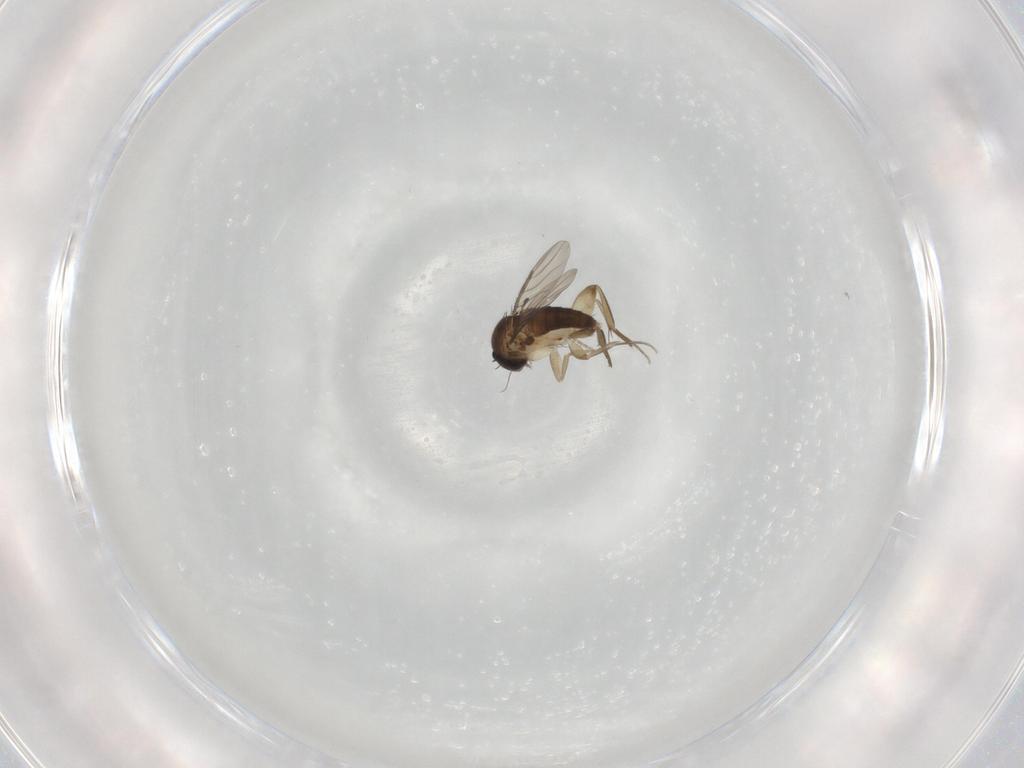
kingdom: Animalia
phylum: Arthropoda
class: Insecta
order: Diptera
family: Phoridae
